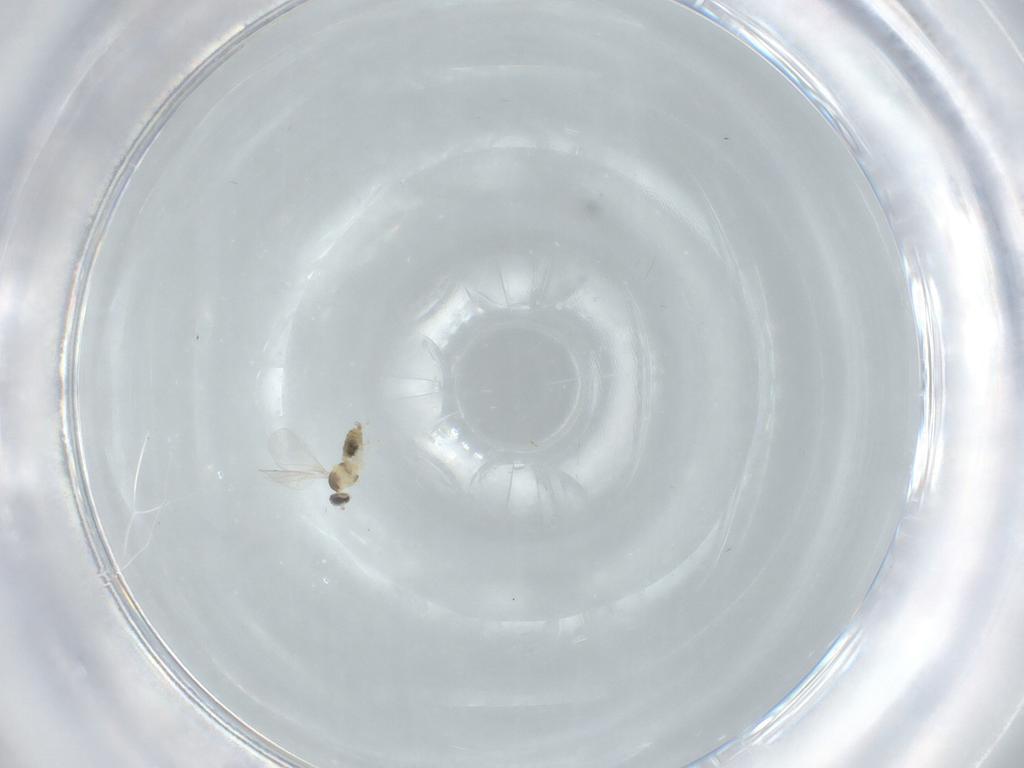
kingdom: Animalia
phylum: Arthropoda
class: Insecta
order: Diptera
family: Cecidomyiidae
